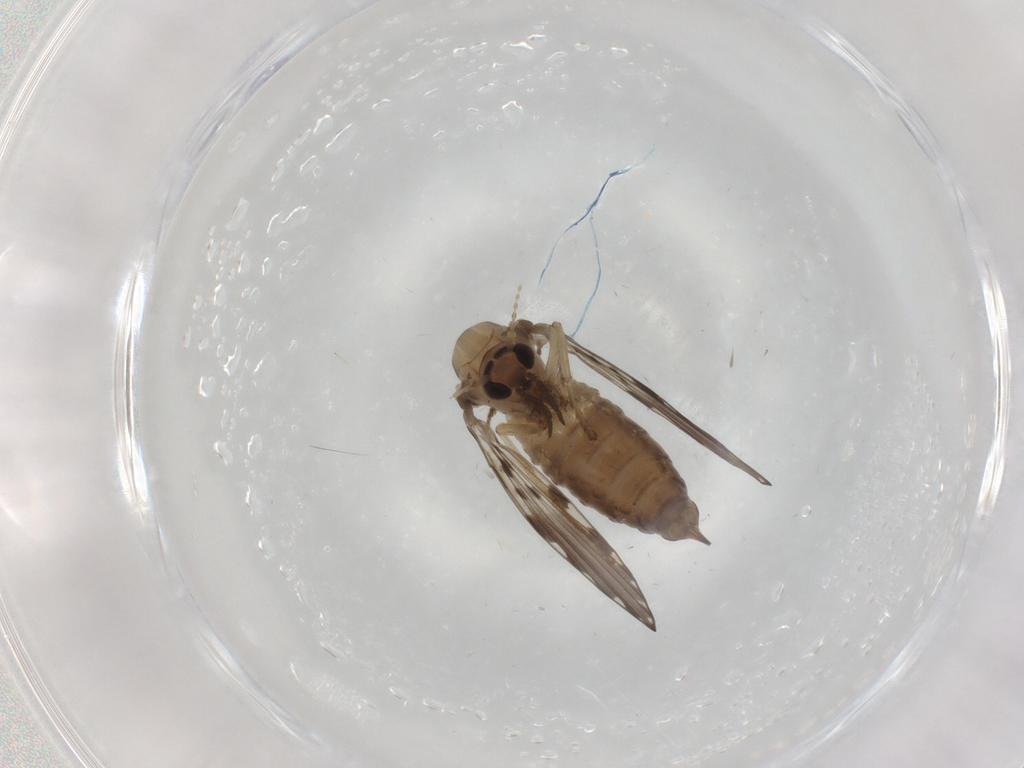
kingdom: Animalia
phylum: Arthropoda
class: Insecta
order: Diptera
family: Psychodidae
